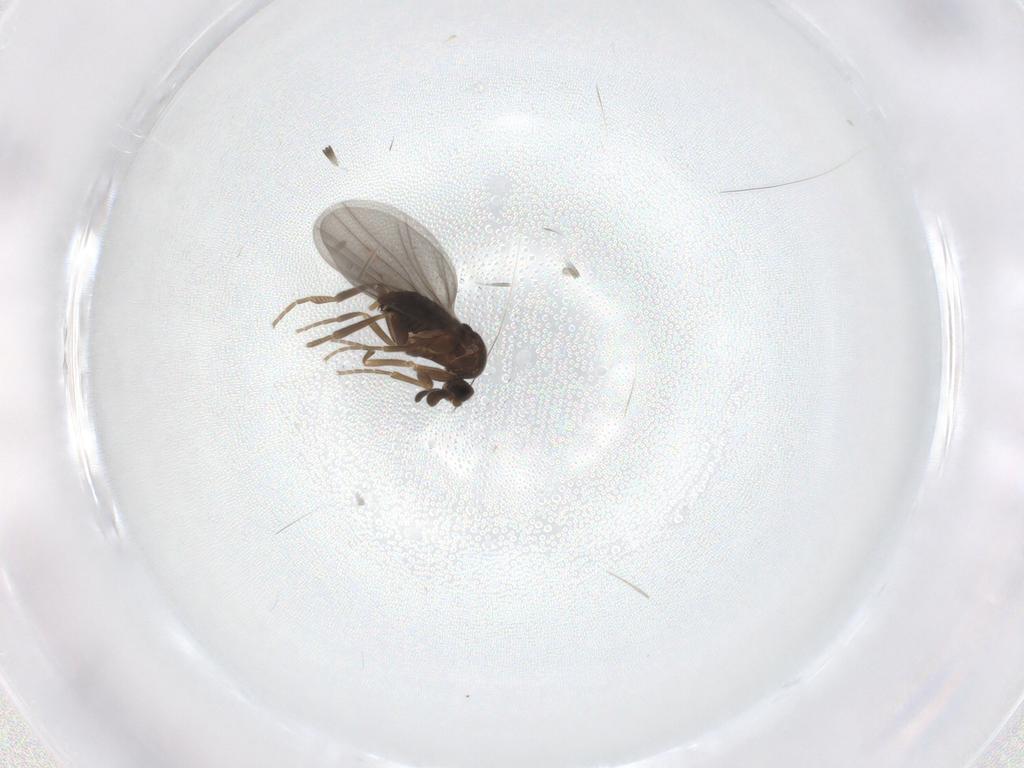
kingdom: Animalia
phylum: Arthropoda
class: Insecta
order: Diptera
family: Phoridae
